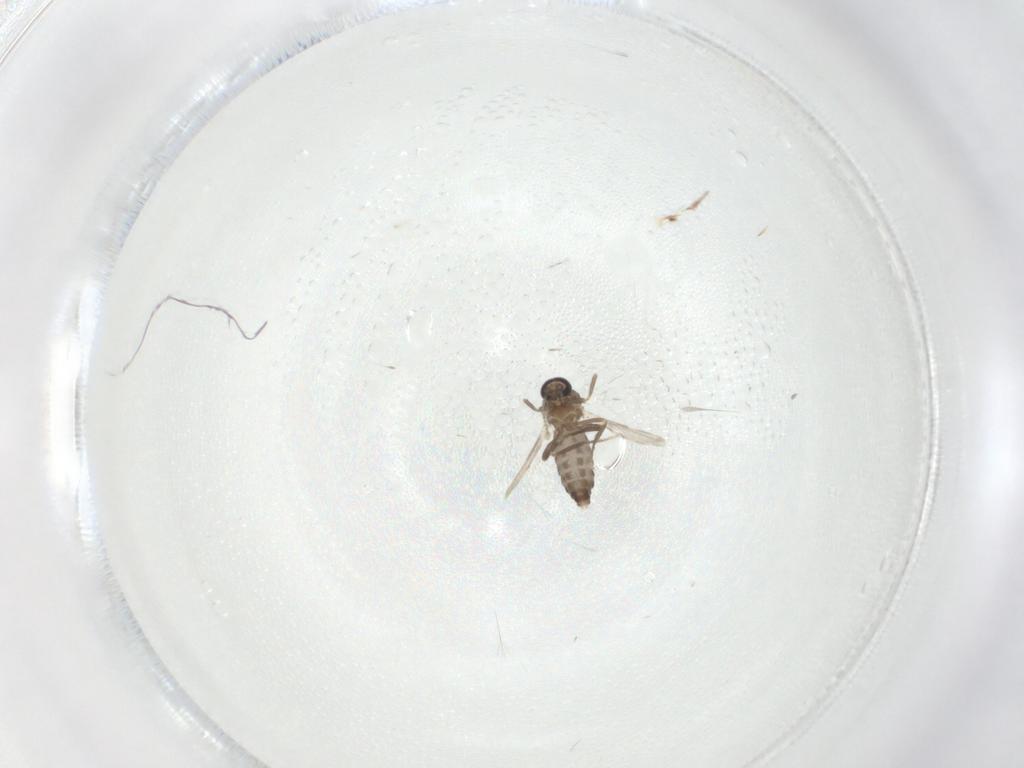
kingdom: Animalia
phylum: Arthropoda
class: Insecta
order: Diptera
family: Ceratopogonidae
